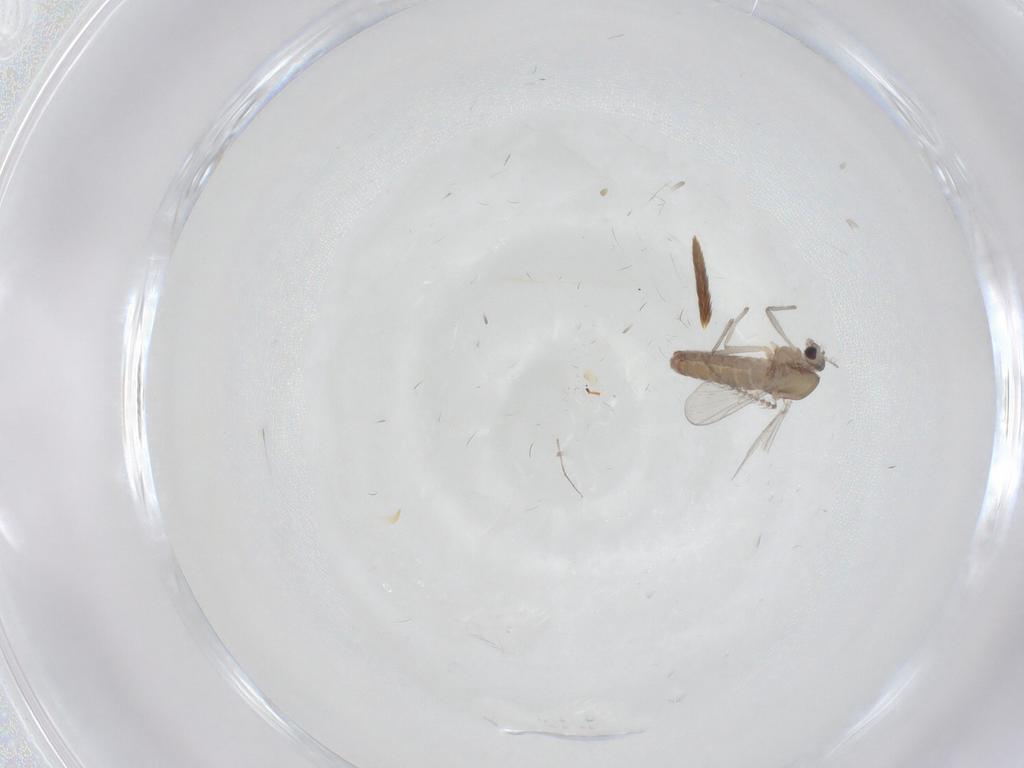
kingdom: Animalia
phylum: Arthropoda
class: Insecta
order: Diptera
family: Chironomidae
